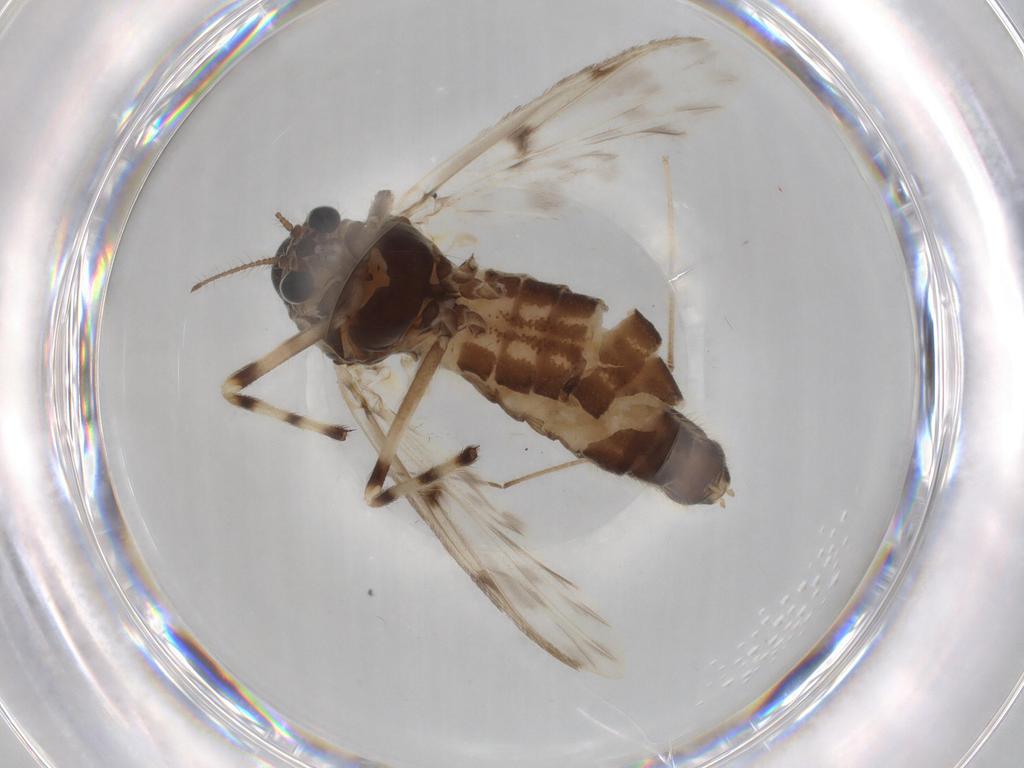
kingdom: Animalia
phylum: Arthropoda
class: Insecta
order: Diptera
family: Chironomidae
